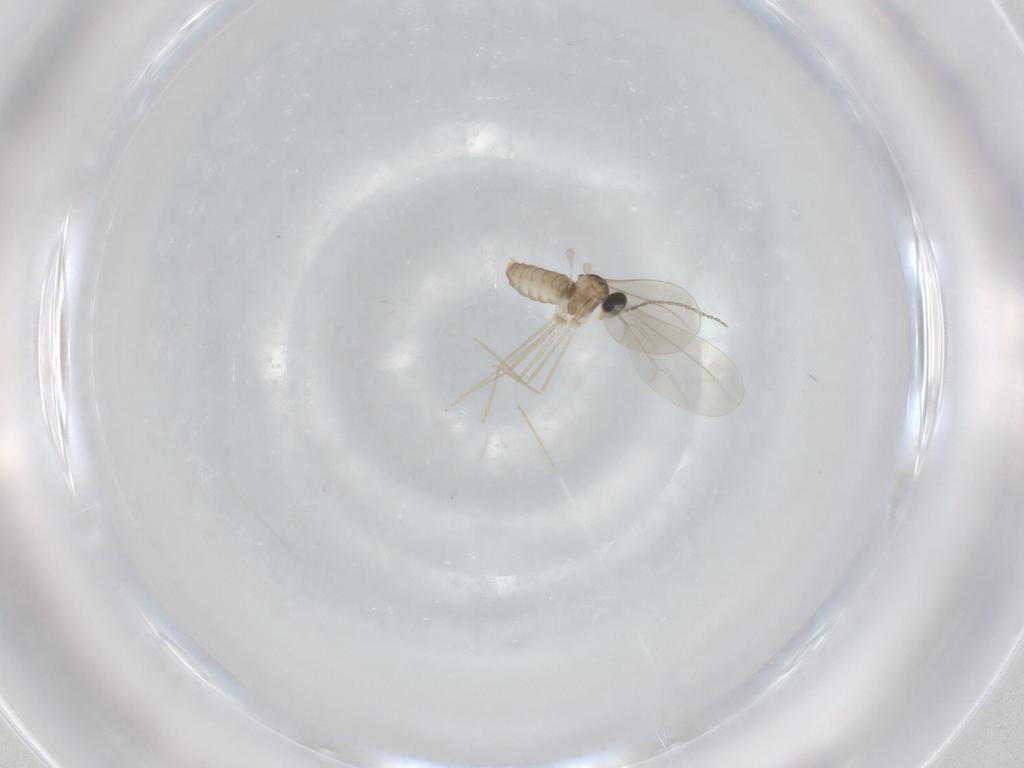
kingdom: Animalia
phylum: Arthropoda
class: Insecta
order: Diptera
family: Cecidomyiidae
